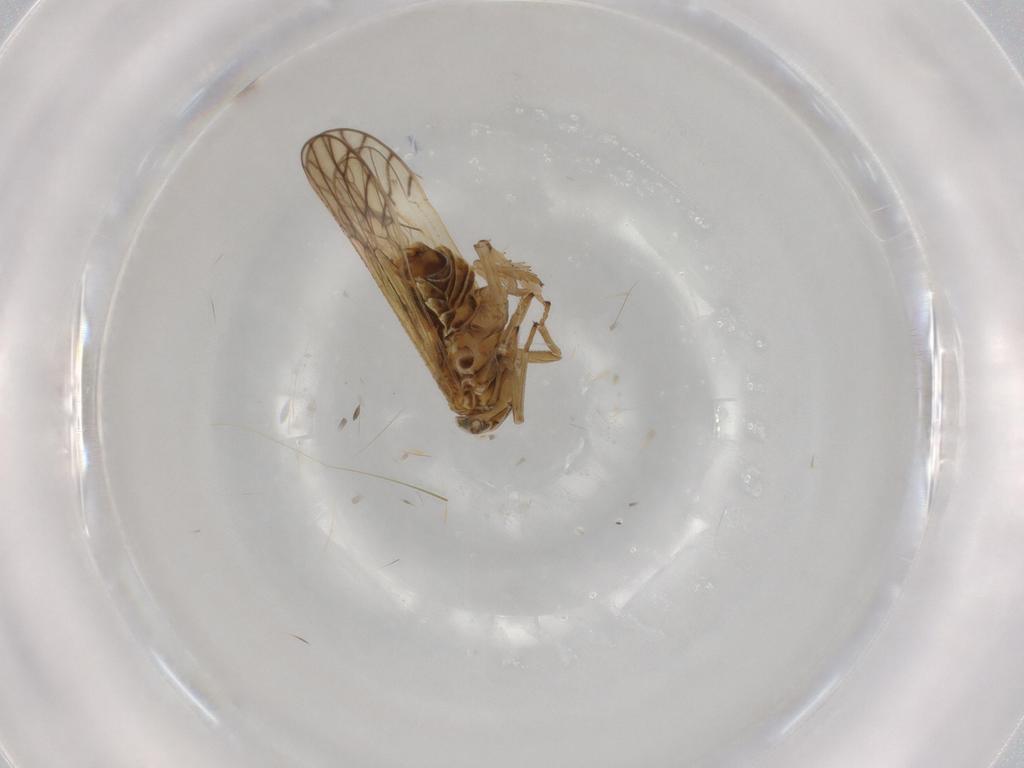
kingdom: Animalia
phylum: Arthropoda
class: Insecta
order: Hemiptera
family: Delphacidae
